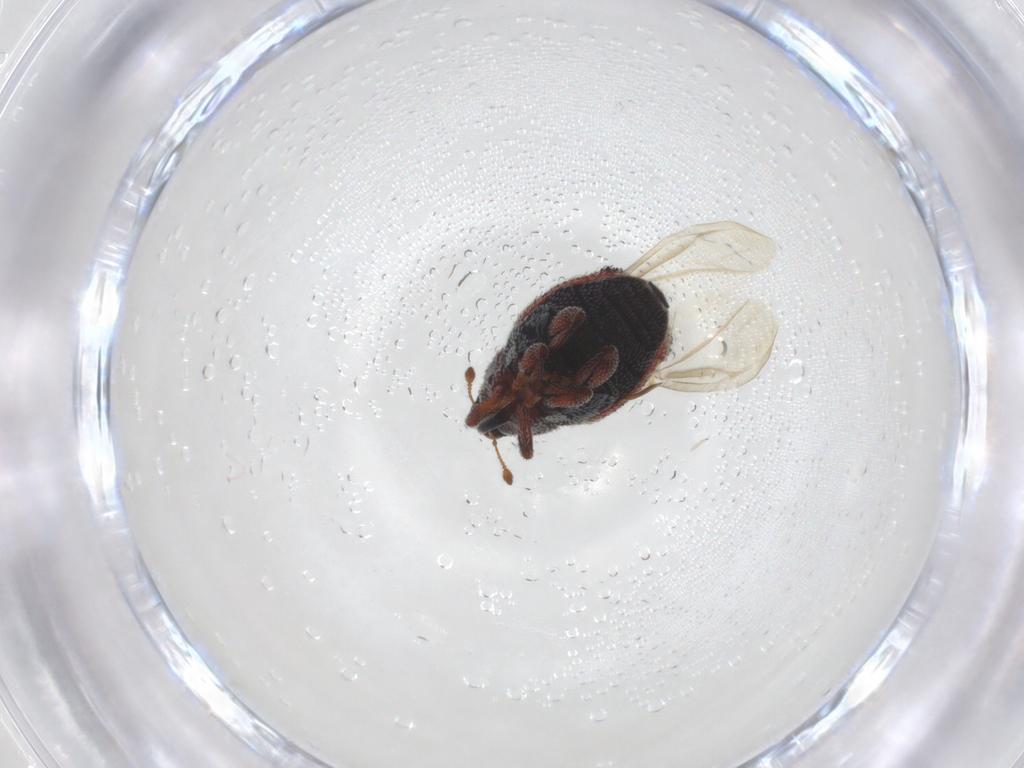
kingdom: Animalia
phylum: Arthropoda
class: Insecta
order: Coleoptera
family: Curculionidae
